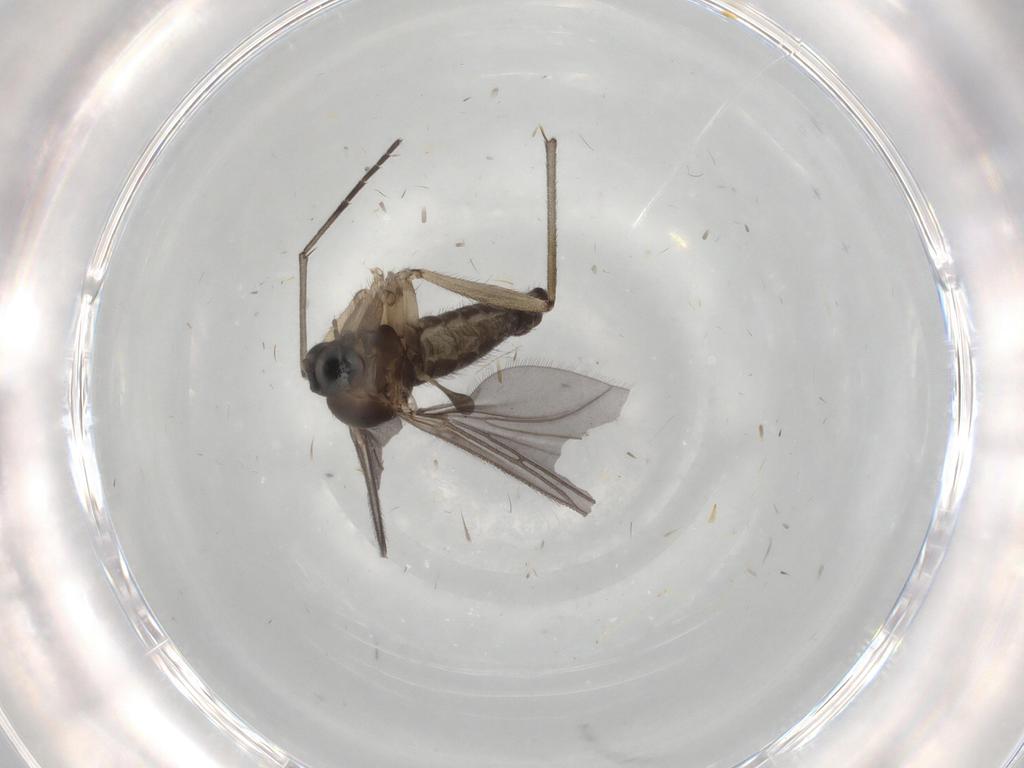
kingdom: Animalia
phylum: Arthropoda
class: Insecta
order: Diptera
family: Sciaridae
